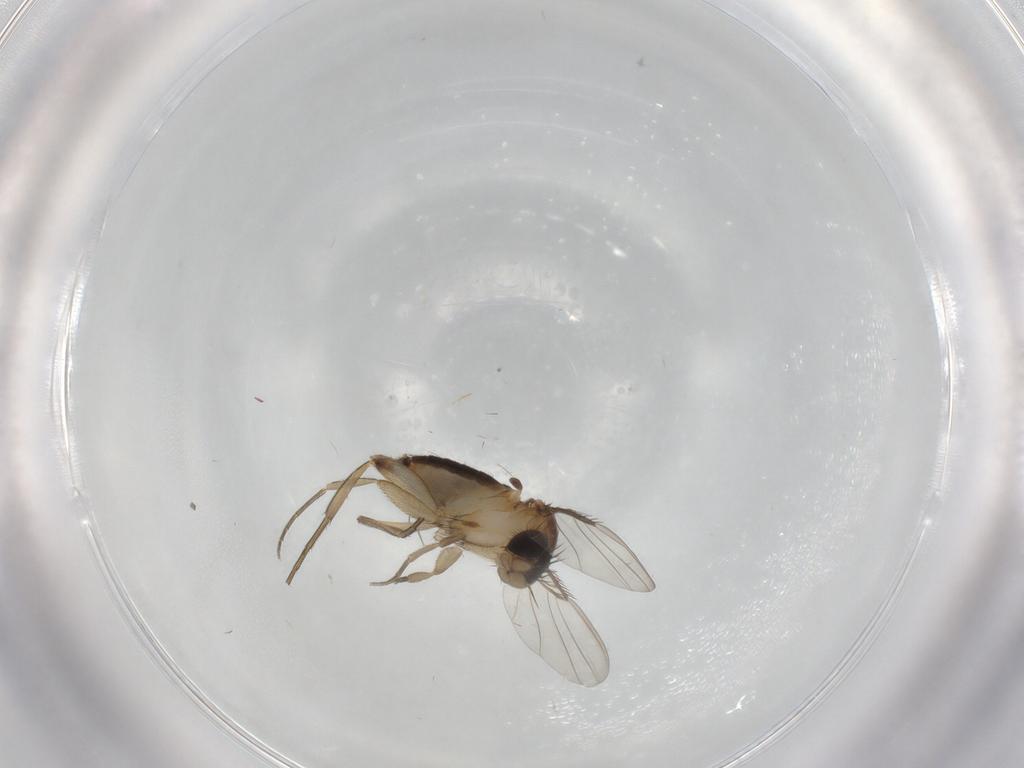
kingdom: Animalia
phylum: Arthropoda
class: Insecta
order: Diptera
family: Phoridae
